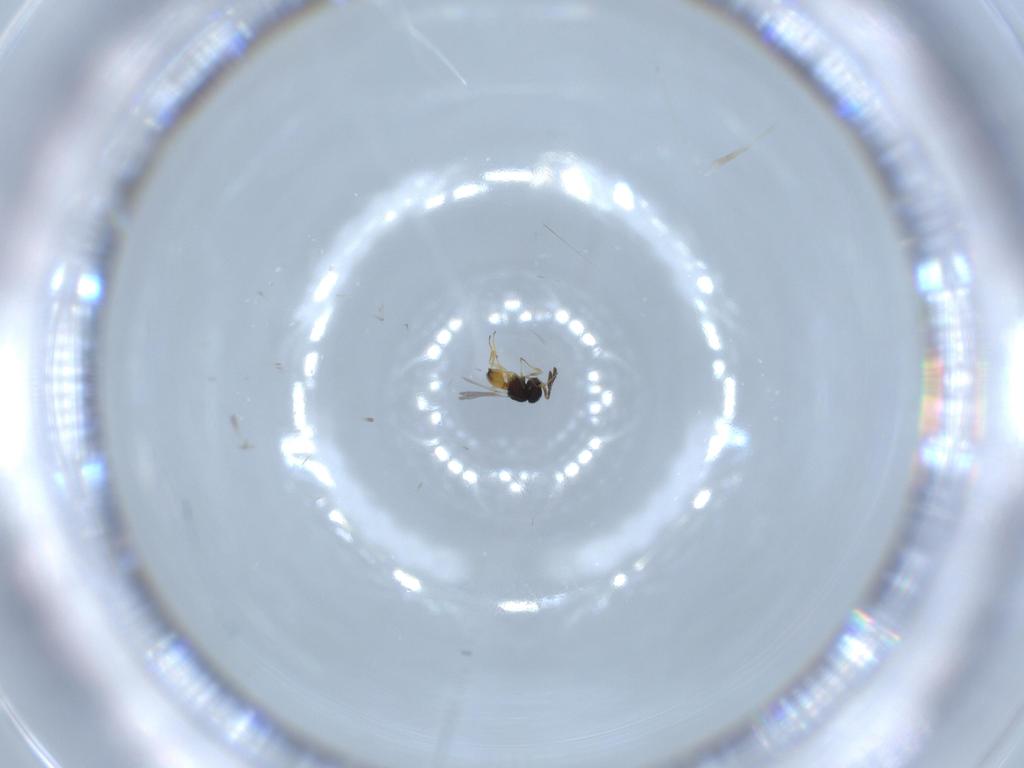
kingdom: Animalia
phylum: Arthropoda
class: Insecta
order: Hymenoptera
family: Scelionidae
